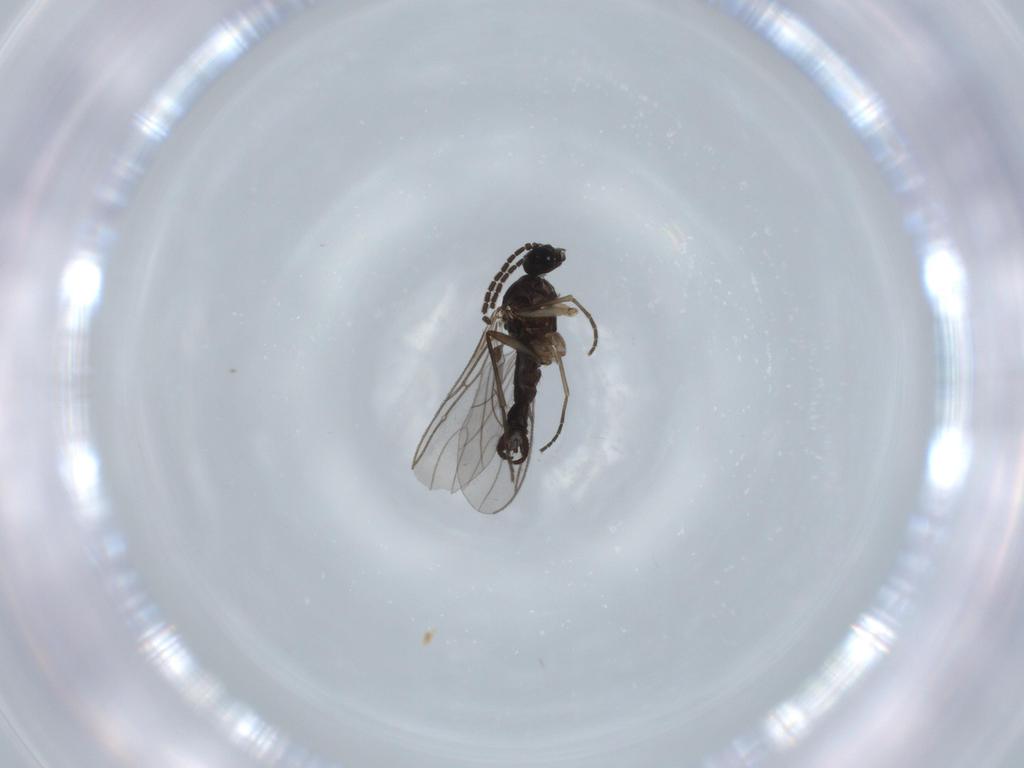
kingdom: Animalia
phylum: Arthropoda
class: Insecta
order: Diptera
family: Sciaridae
